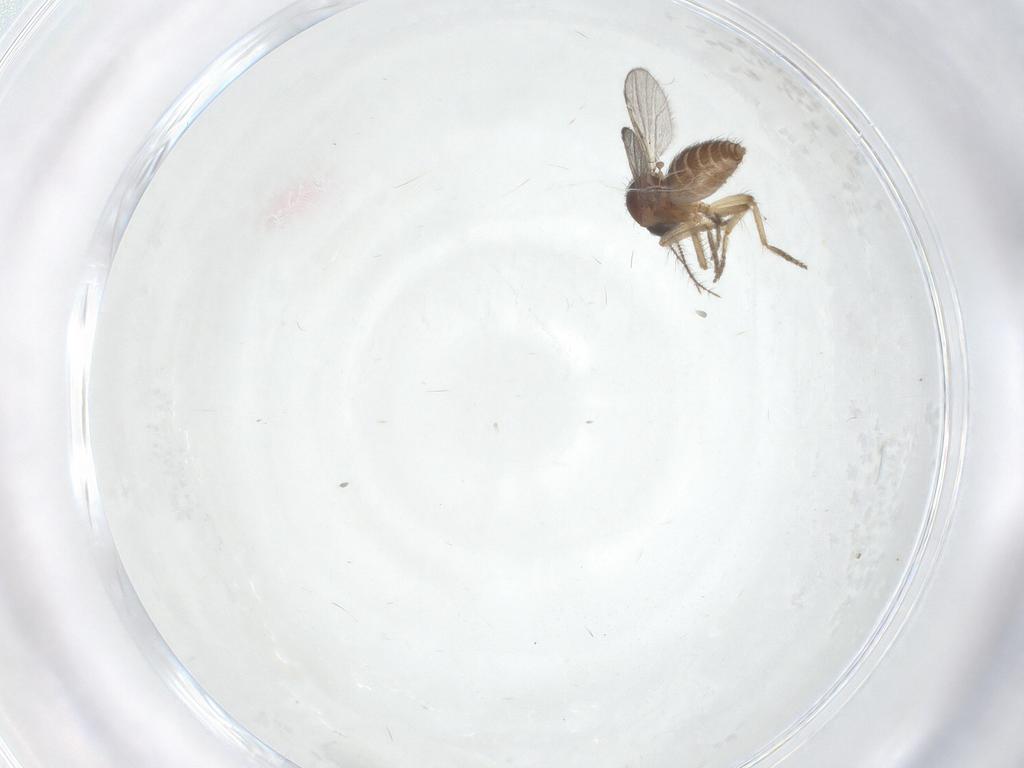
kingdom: Animalia
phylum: Arthropoda
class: Insecta
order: Diptera
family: Ceratopogonidae
